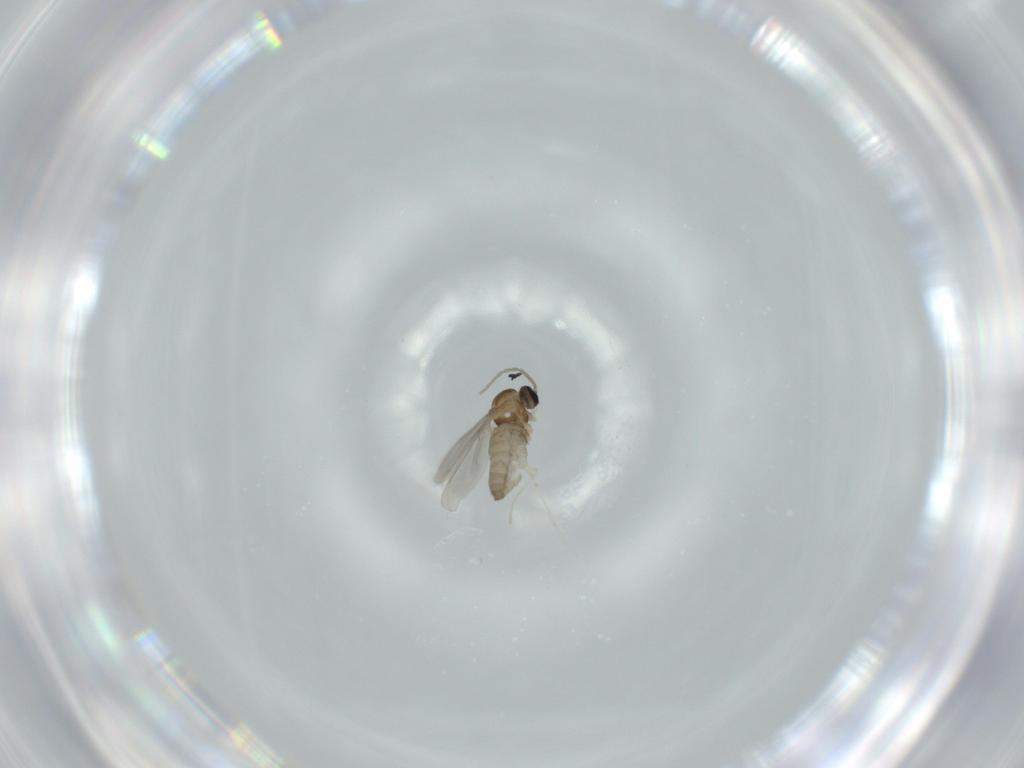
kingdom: Animalia
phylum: Arthropoda
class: Insecta
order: Diptera
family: Cecidomyiidae
